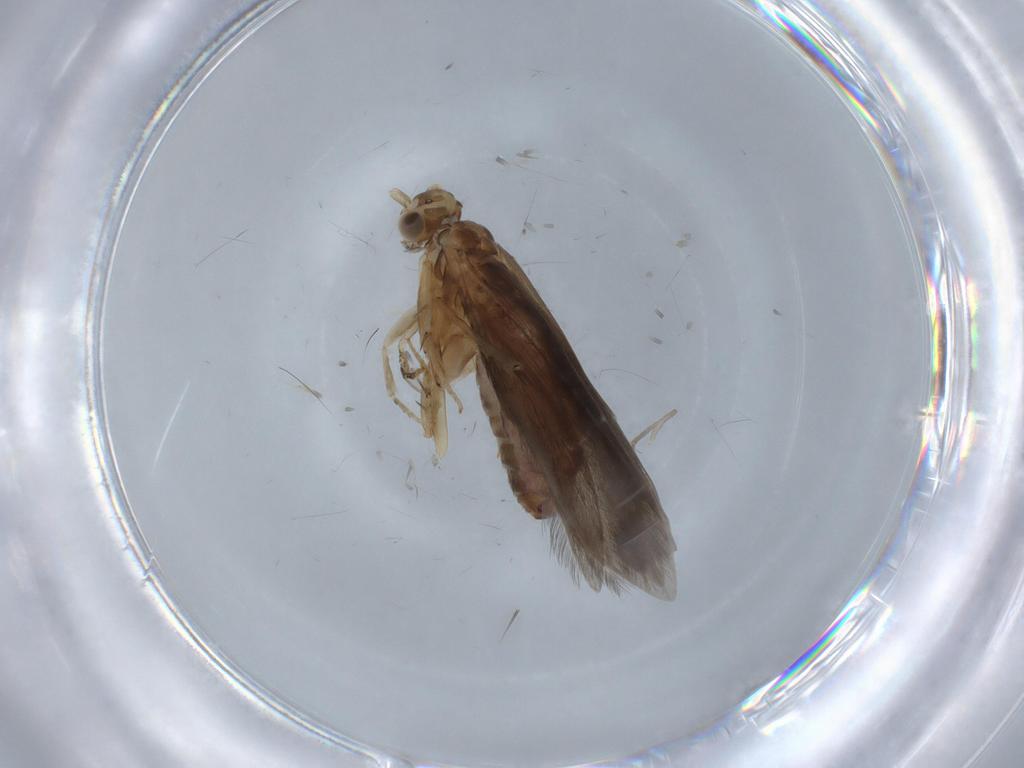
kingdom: Animalia
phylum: Arthropoda
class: Insecta
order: Trichoptera
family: Glossosomatidae
